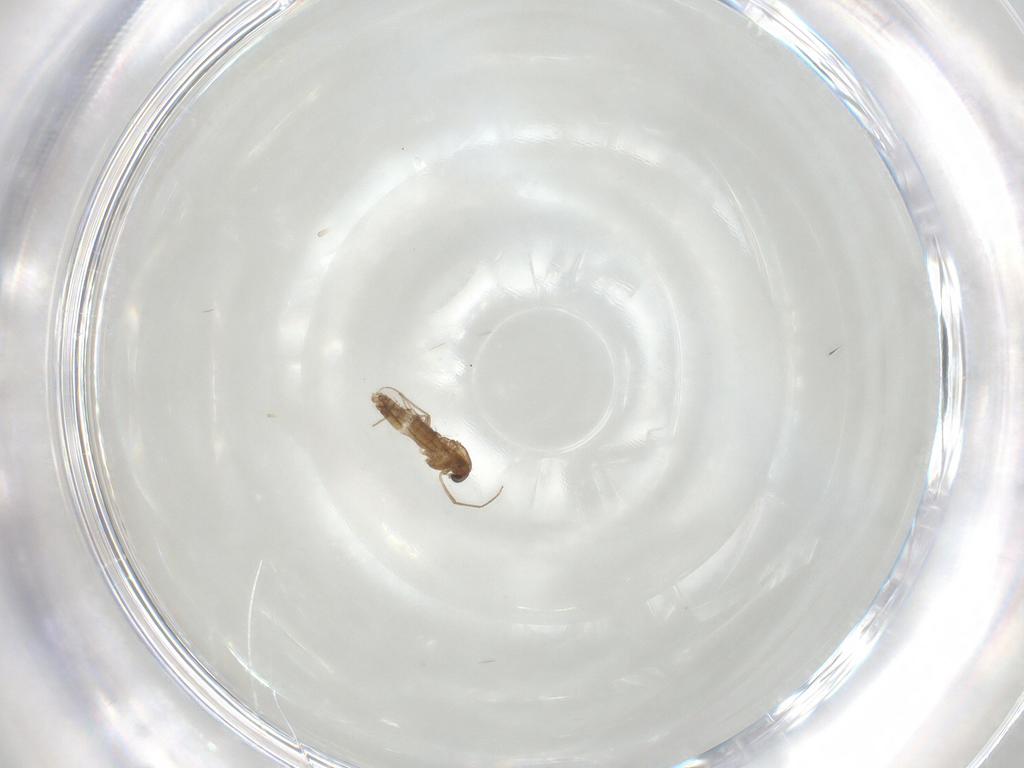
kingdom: Animalia
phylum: Arthropoda
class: Insecta
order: Diptera
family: Chironomidae
